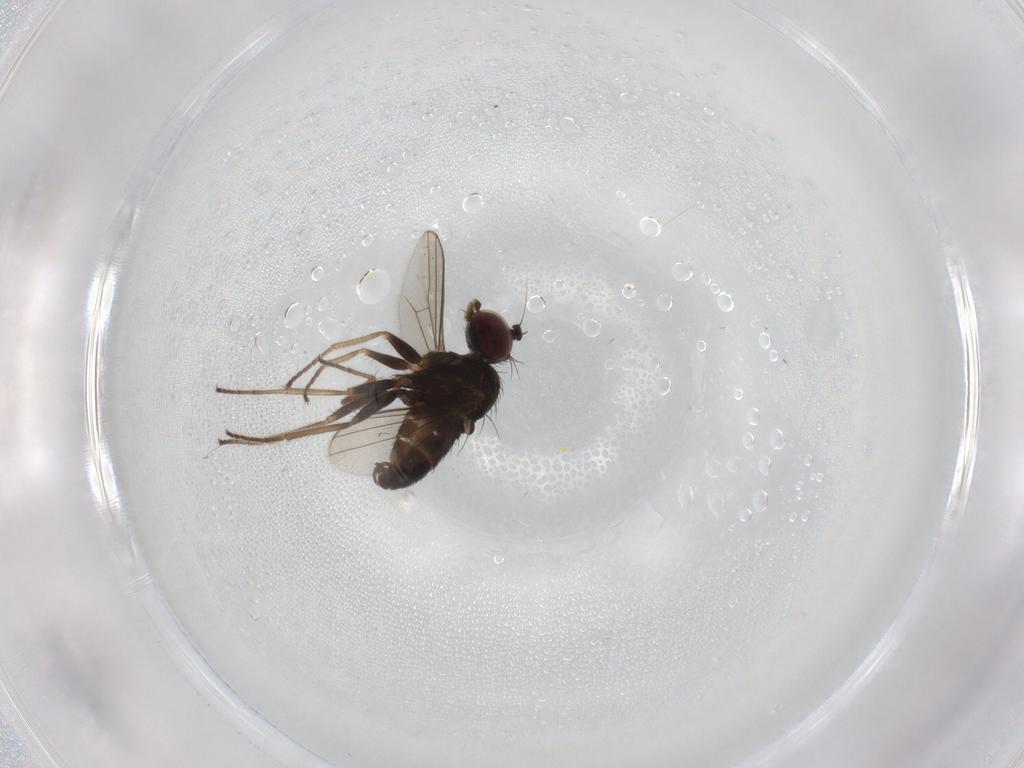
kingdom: Animalia
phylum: Arthropoda
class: Insecta
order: Diptera
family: Dolichopodidae
